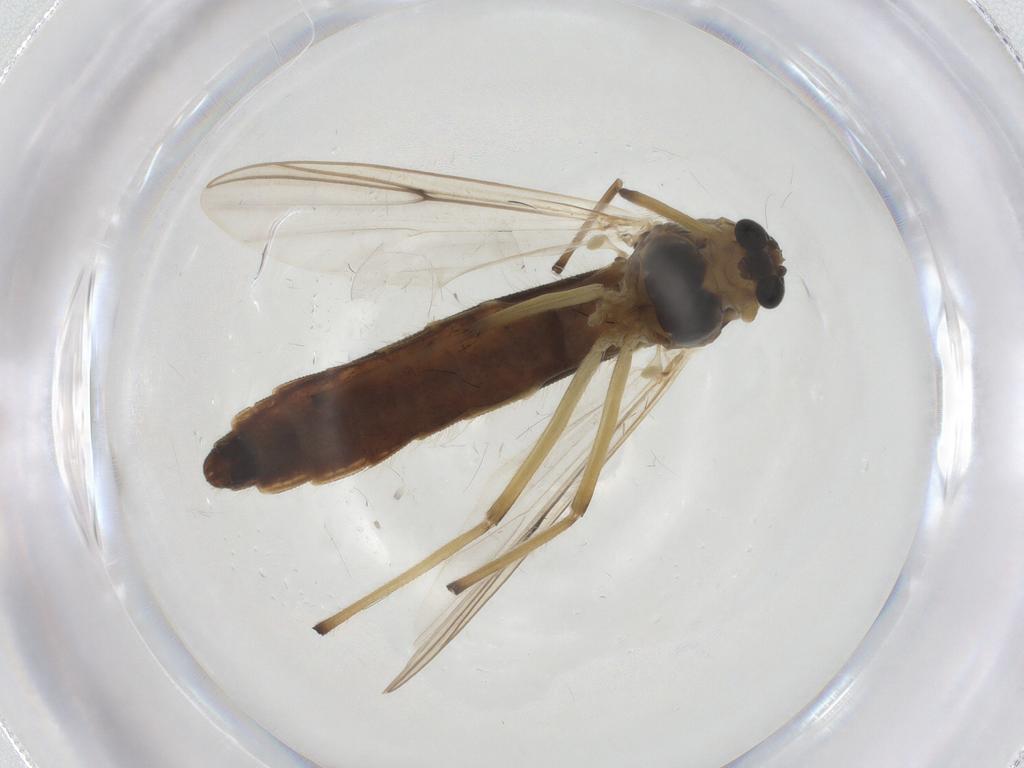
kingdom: Animalia
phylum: Arthropoda
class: Insecta
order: Diptera
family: Chironomidae
